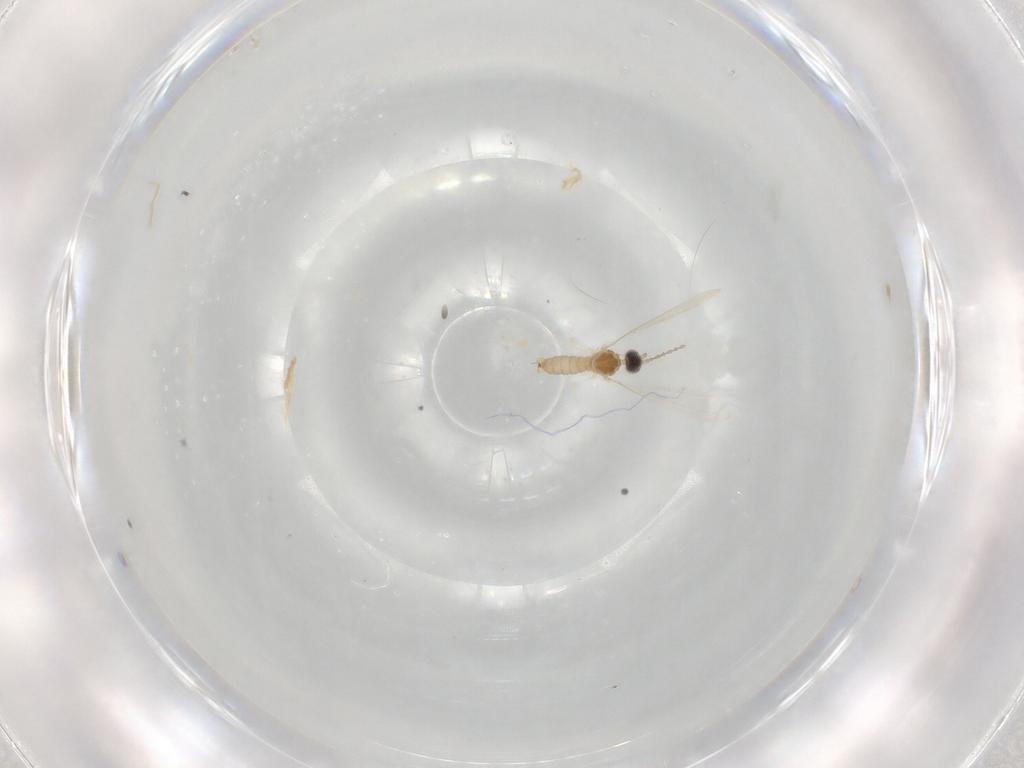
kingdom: Animalia
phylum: Arthropoda
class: Insecta
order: Diptera
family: Cecidomyiidae
